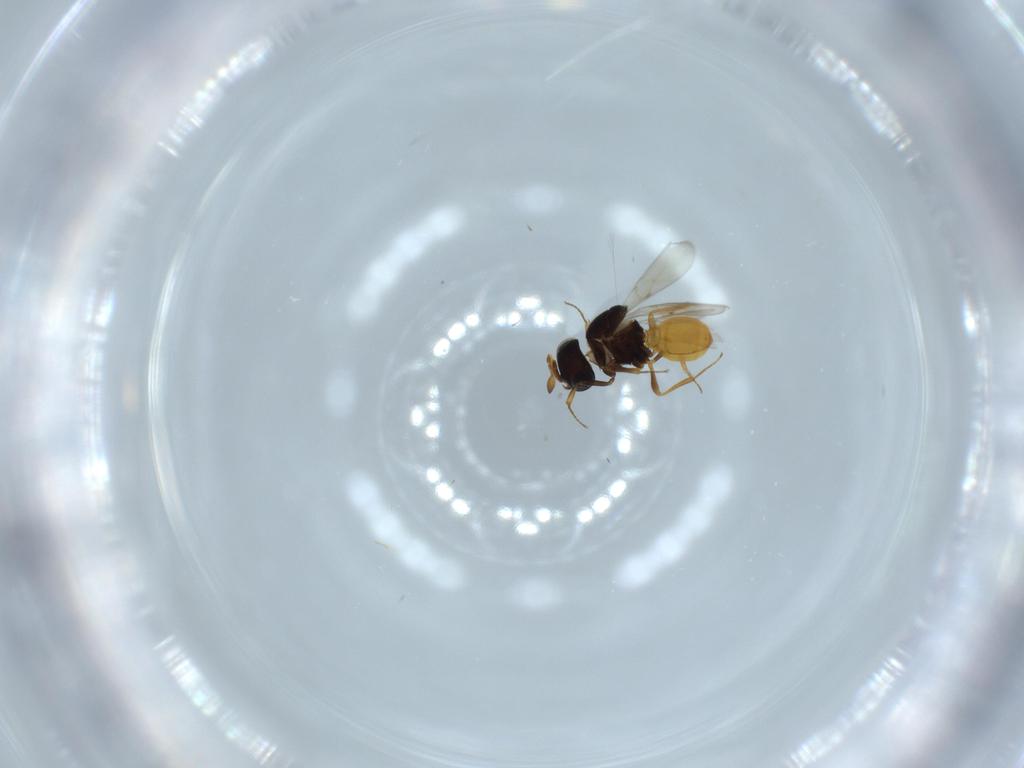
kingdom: Animalia
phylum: Arthropoda
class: Insecta
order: Hymenoptera
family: Scelionidae
